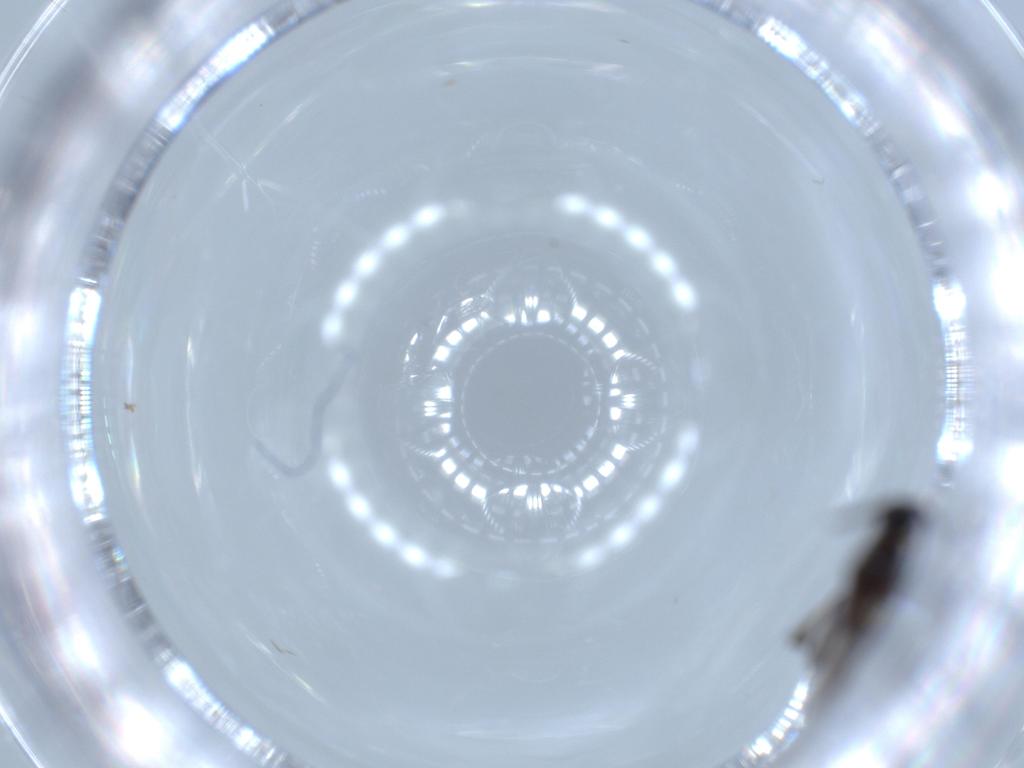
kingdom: Animalia
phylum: Arthropoda
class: Insecta
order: Diptera
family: Sciaridae
